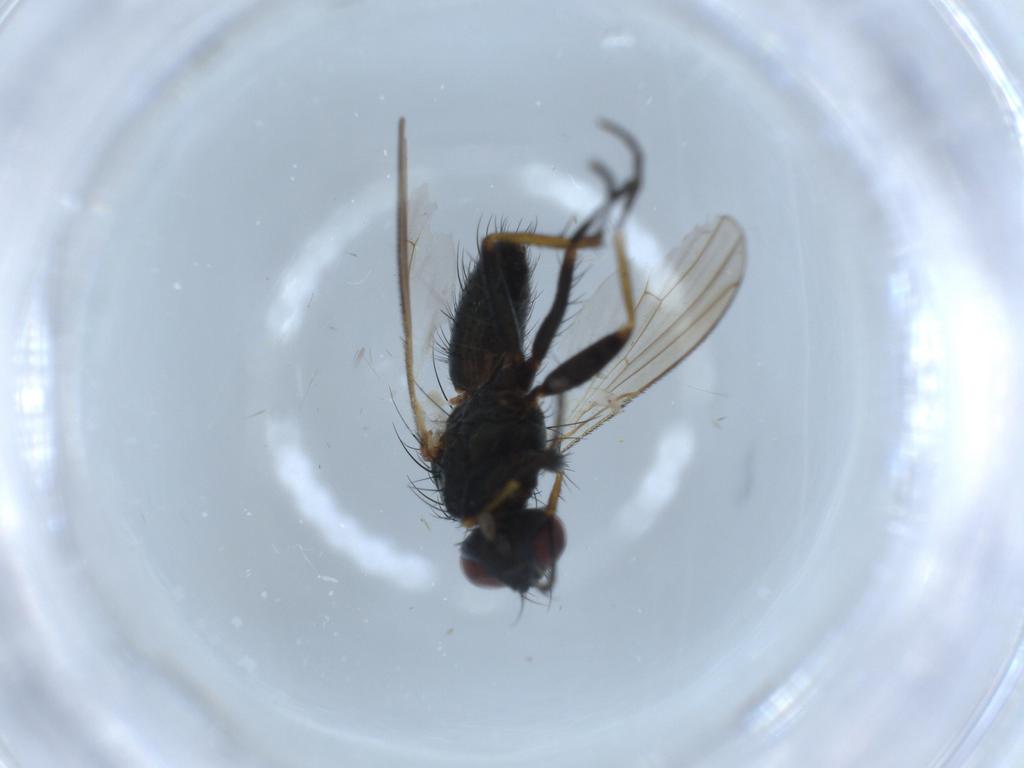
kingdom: Animalia
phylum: Arthropoda
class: Insecta
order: Diptera
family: Muscidae
